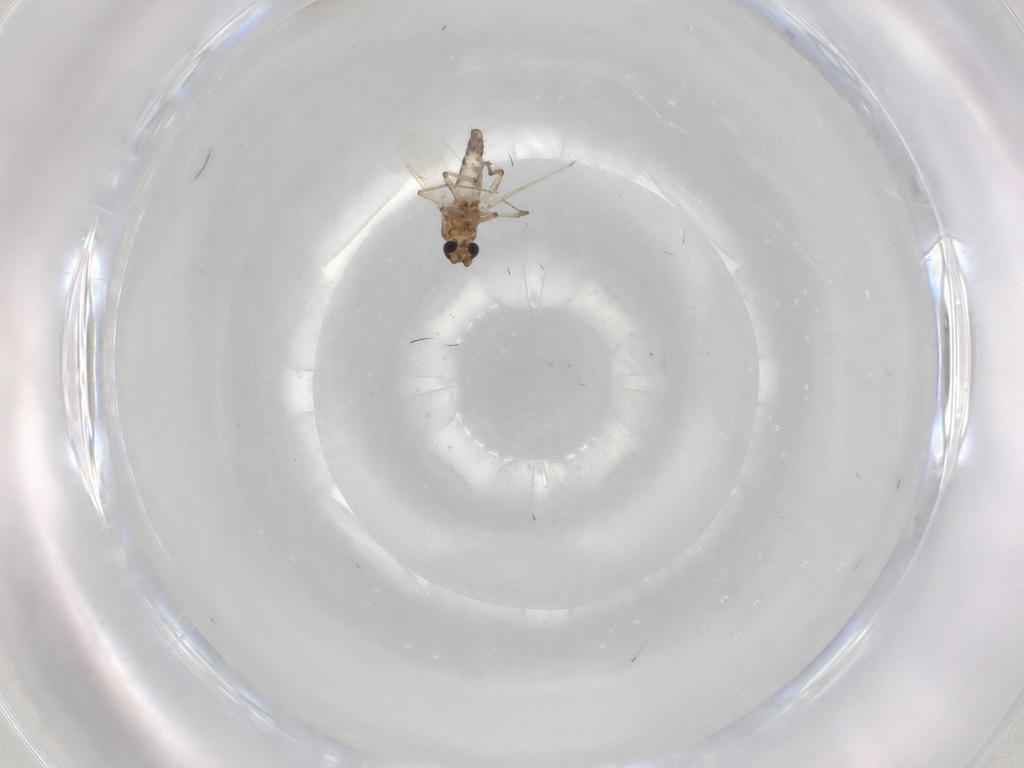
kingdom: Animalia
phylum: Arthropoda
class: Insecta
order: Diptera
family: Ceratopogonidae
